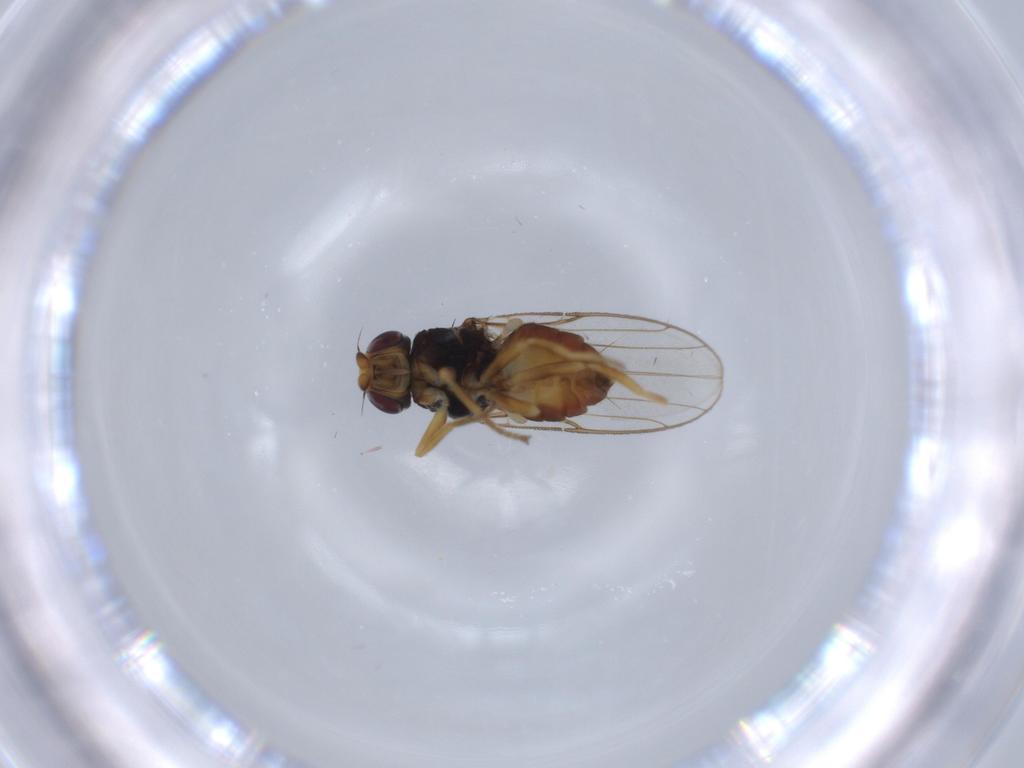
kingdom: Animalia
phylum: Arthropoda
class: Insecta
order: Diptera
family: Chloropidae
